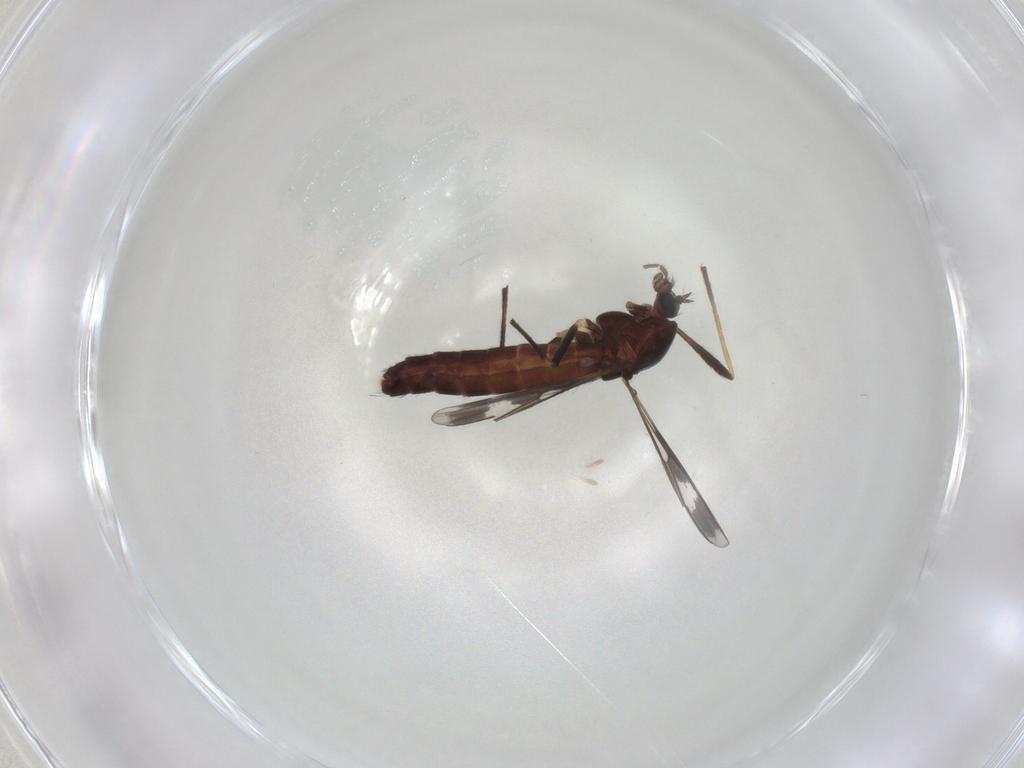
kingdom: Animalia
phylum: Arthropoda
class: Insecta
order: Diptera
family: Chironomidae
